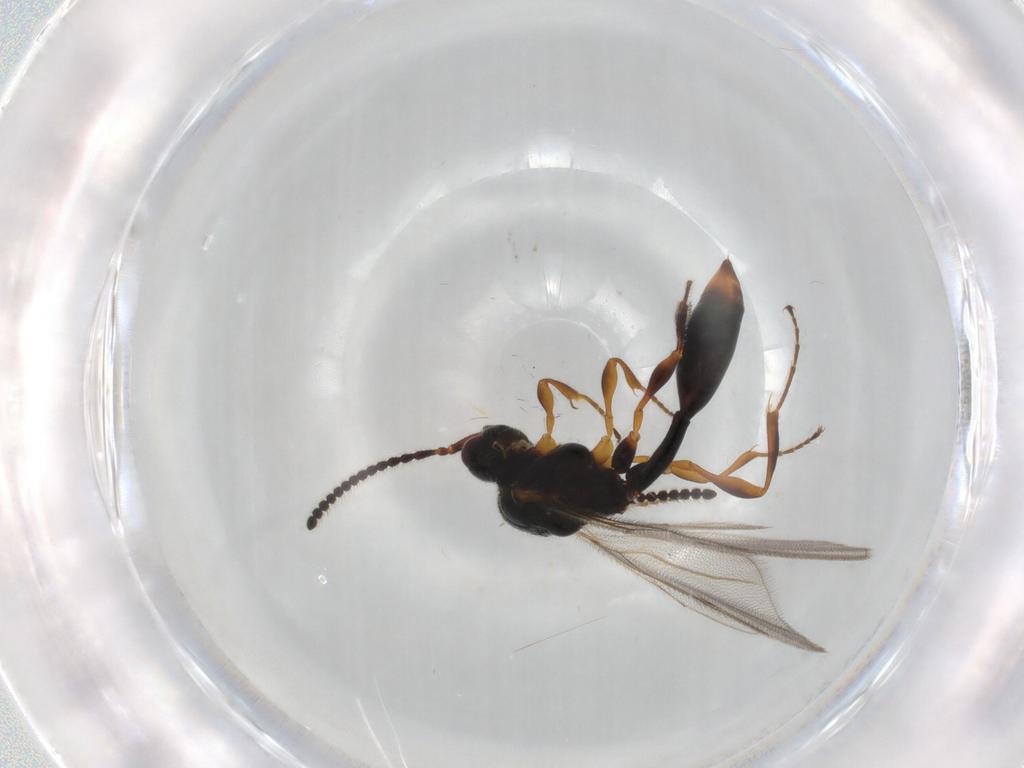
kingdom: Animalia
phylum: Arthropoda
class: Insecta
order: Hymenoptera
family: Diapriidae
